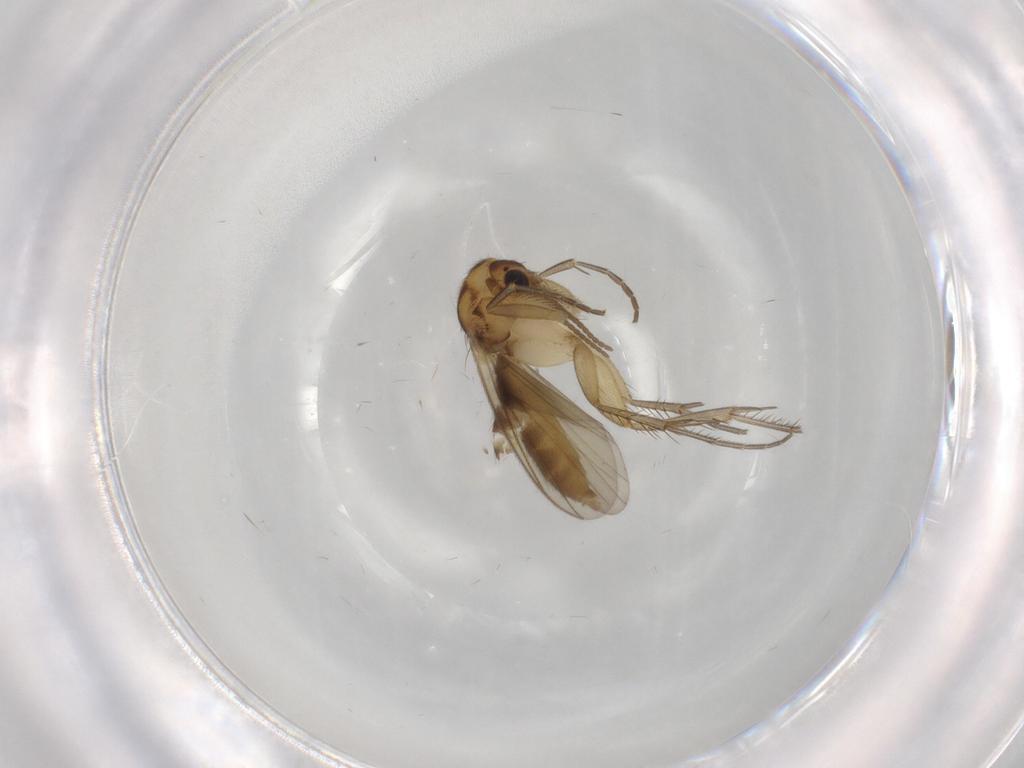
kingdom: Animalia
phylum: Arthropoda
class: Insecta
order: Diptera
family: Mycetophilidae
